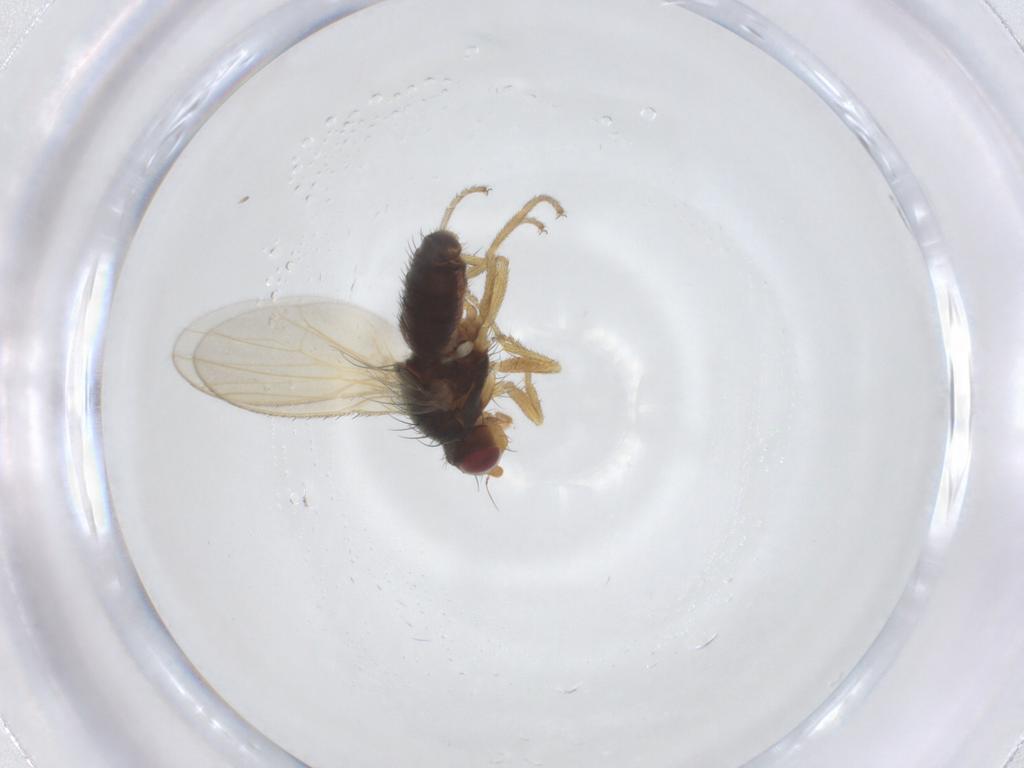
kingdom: Animalia
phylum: Arthropoda
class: Insecta
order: Diptera
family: Heleomyzidae
